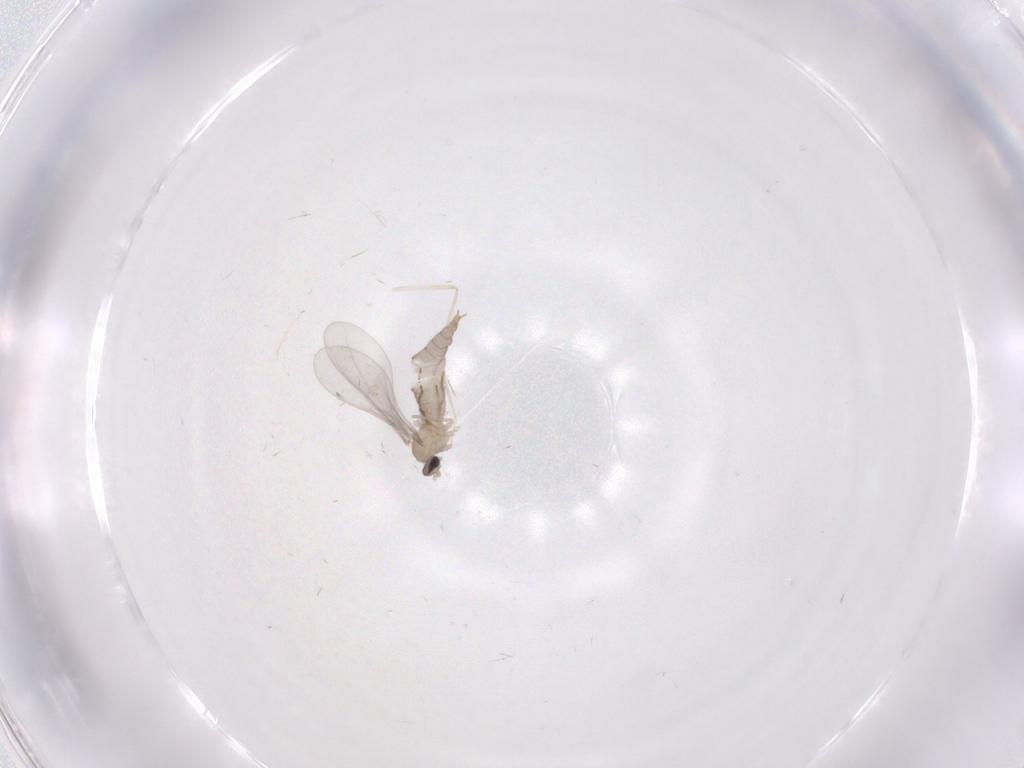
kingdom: Animalia
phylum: Arthropoda
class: Insecta
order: Diptera
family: Cecidomyiidae
